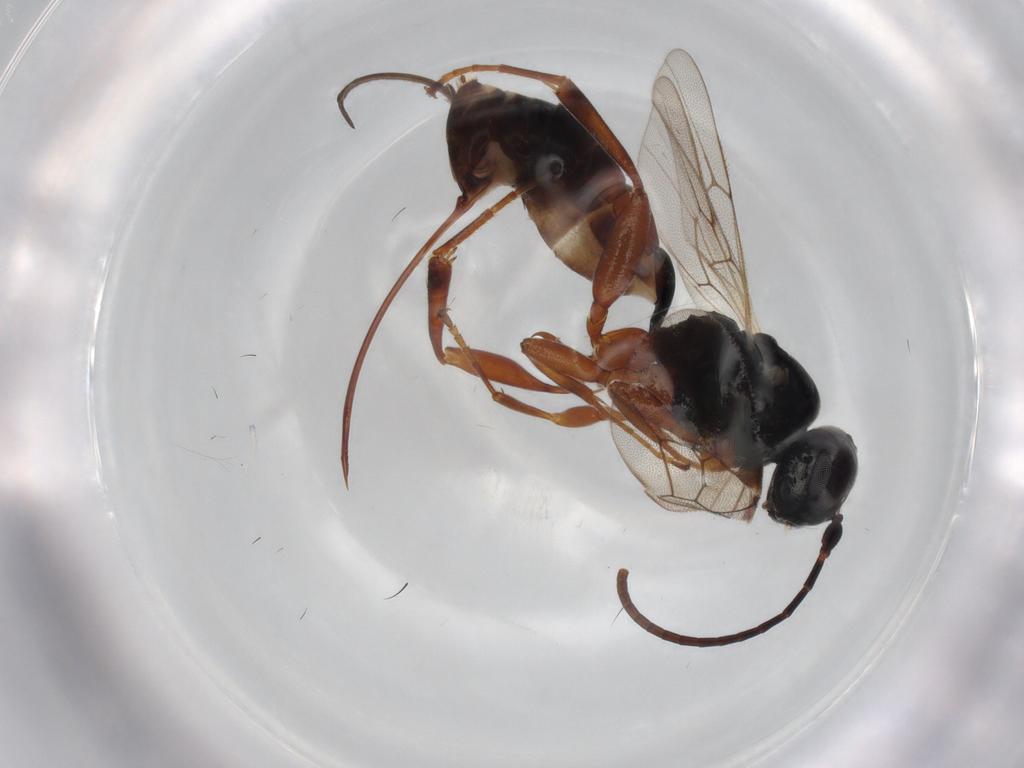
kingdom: Animalia
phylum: Arthropoda
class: Insecta
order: Hymenoptera
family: Ichneumonidae
